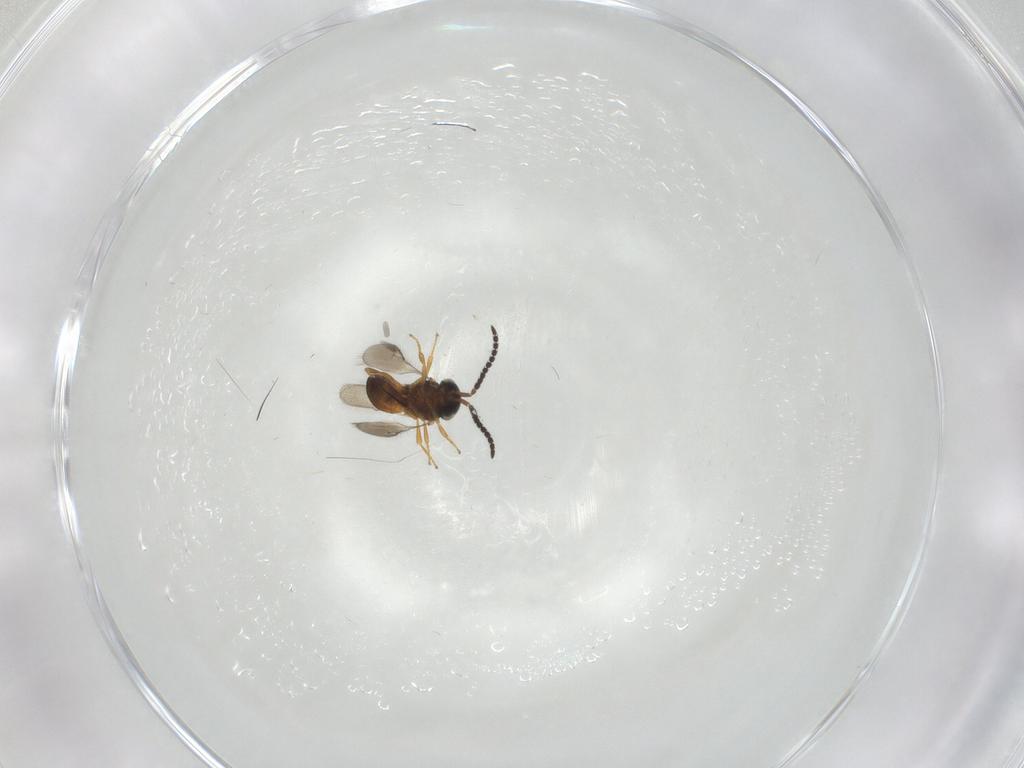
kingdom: Animalia
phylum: Arthropoda
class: Insecta
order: Hymenoptera
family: Scelionidae
